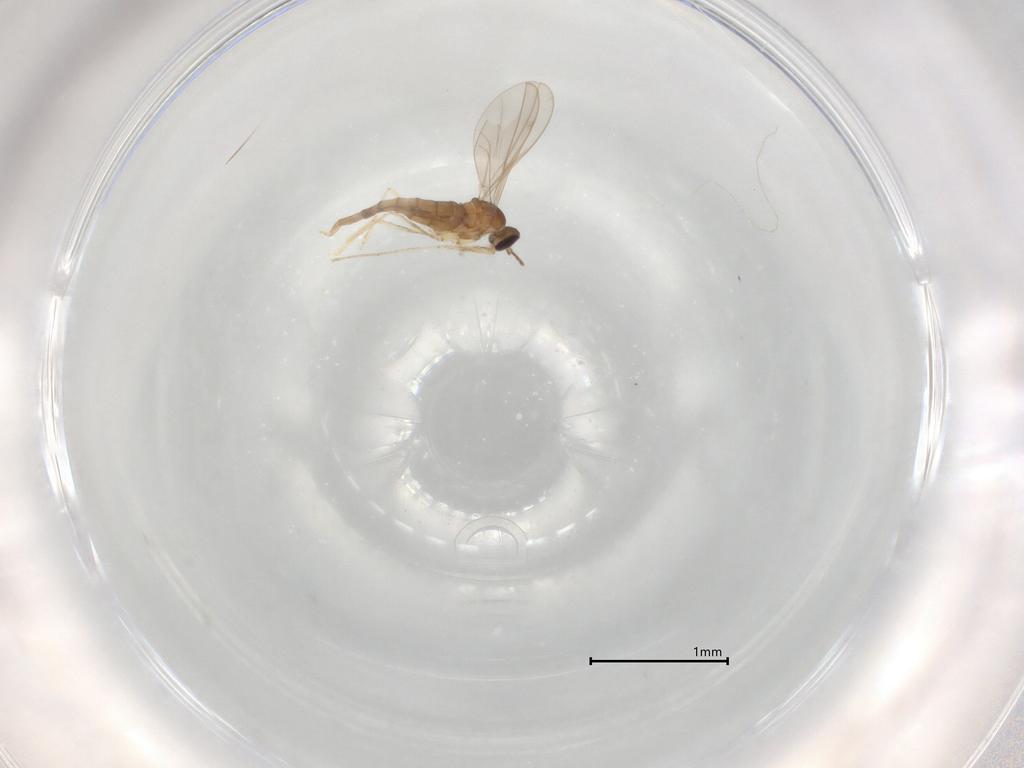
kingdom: Animalia
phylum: Arthropoda
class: Insecta
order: Diptera
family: Cecidomyiidae
